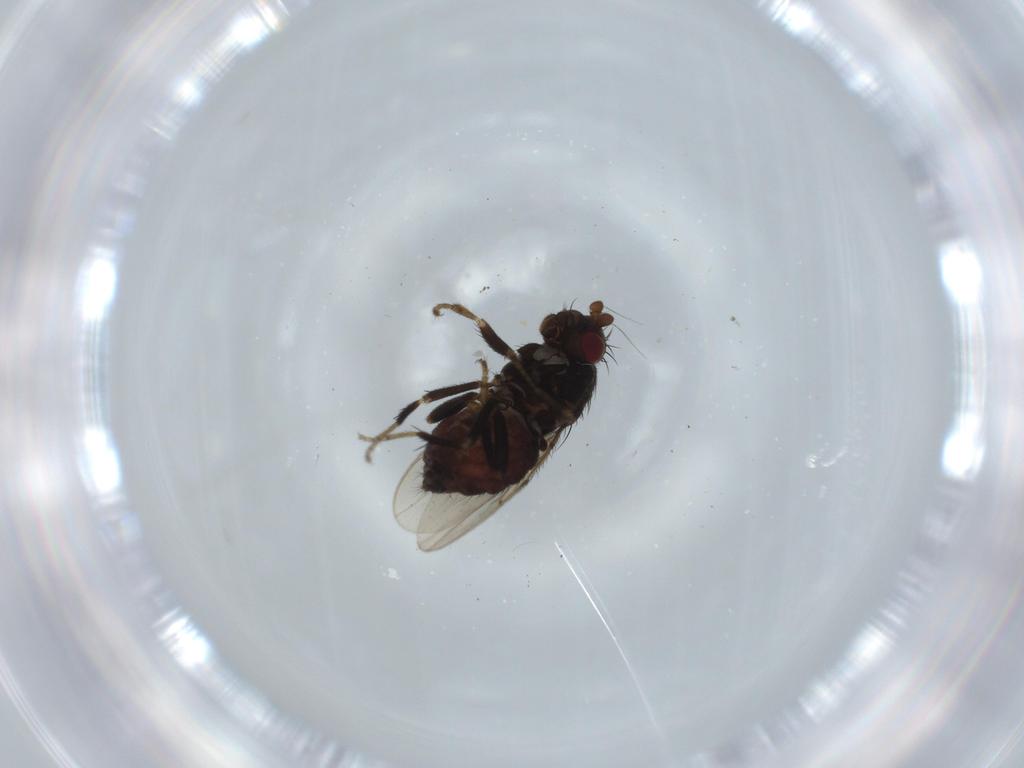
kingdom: Animalia
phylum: Arthropoda
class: Insecta
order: Diptera
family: Sphaeroceridae
